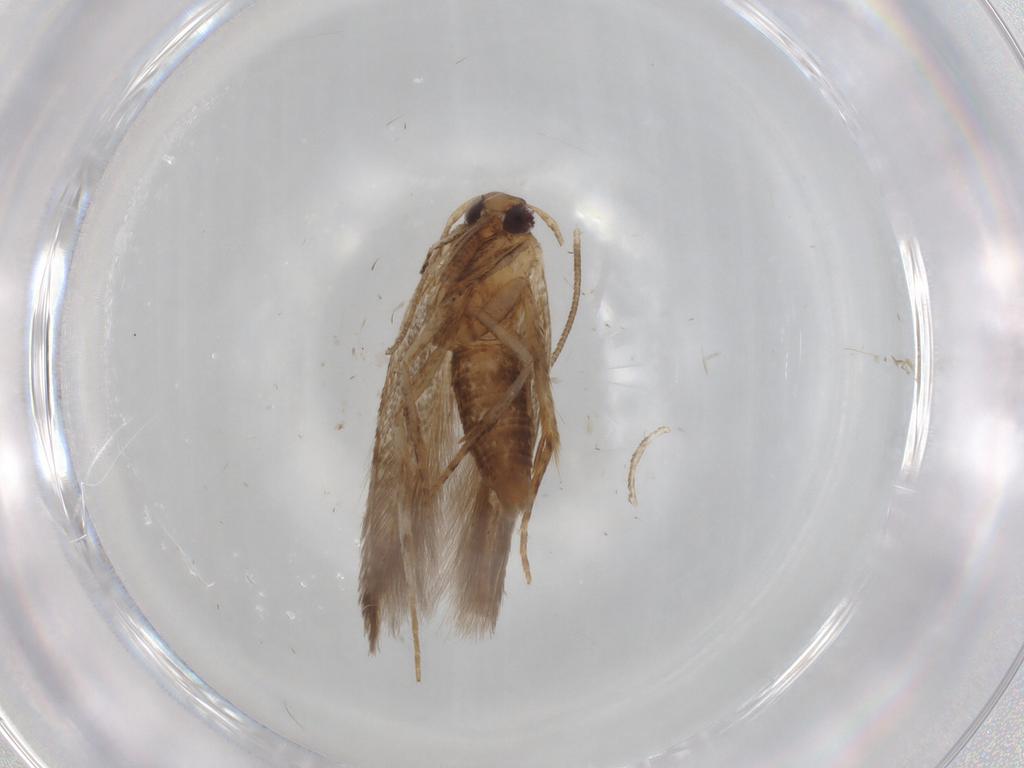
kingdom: Animalia
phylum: Arthropoda
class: Insecta
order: Lepidoptera
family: Cosmopterigidae
